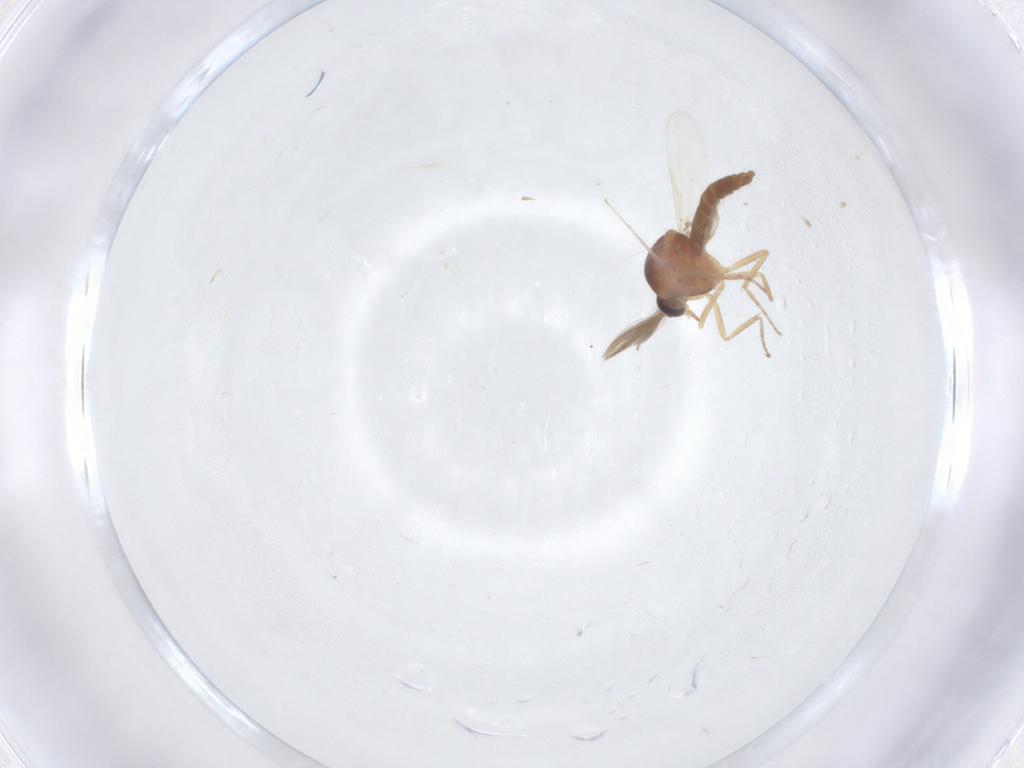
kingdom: Animalia
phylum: Arthropoda
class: Insecta
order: Diptera
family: Ceratopogonidae
